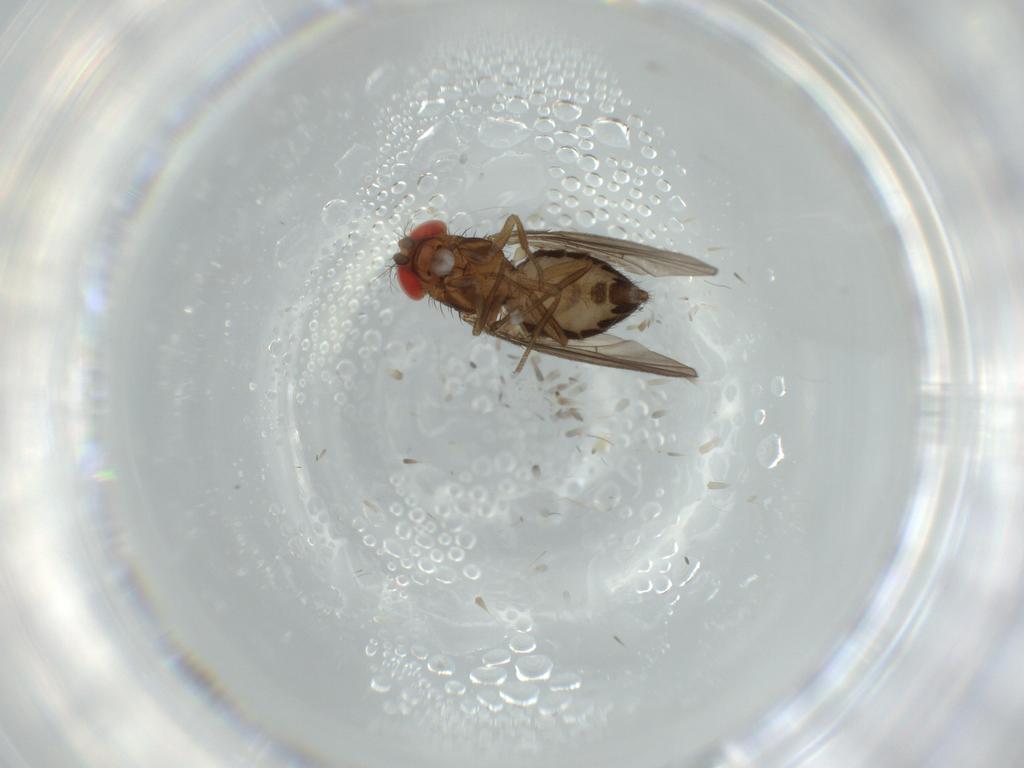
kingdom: Animalia
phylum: Arthropoda
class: Insecta
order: Diptera
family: Drosophilidae
